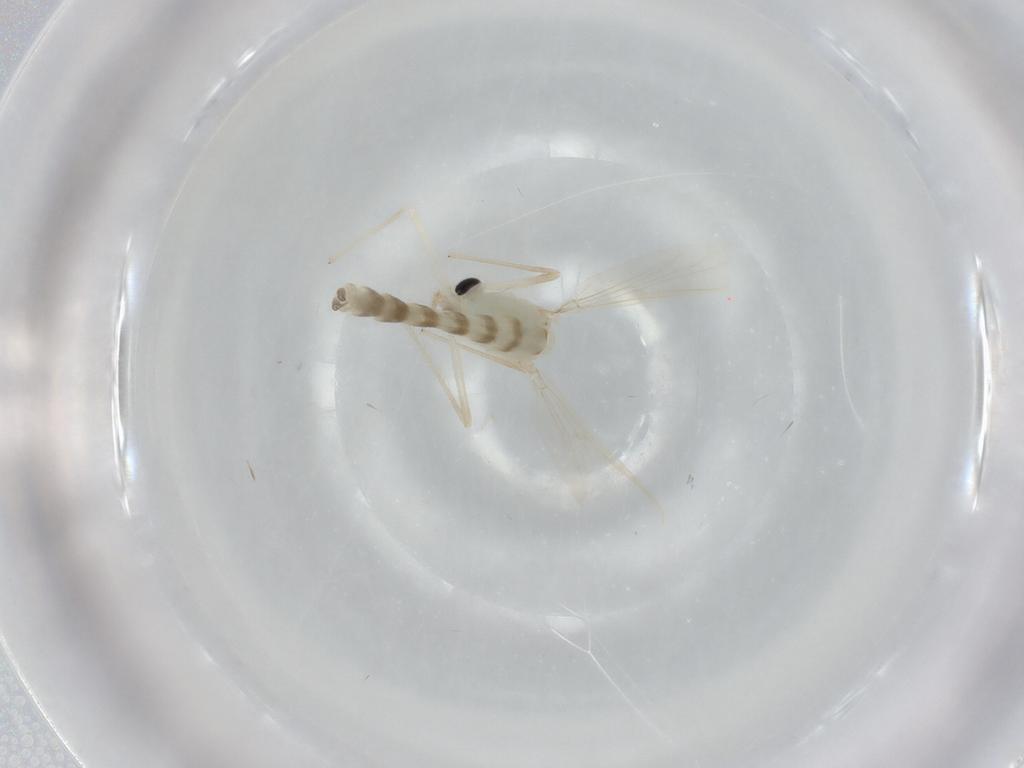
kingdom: Animalia
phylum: Arthropoda
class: Insecta
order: Diptera
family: Chironomidae
